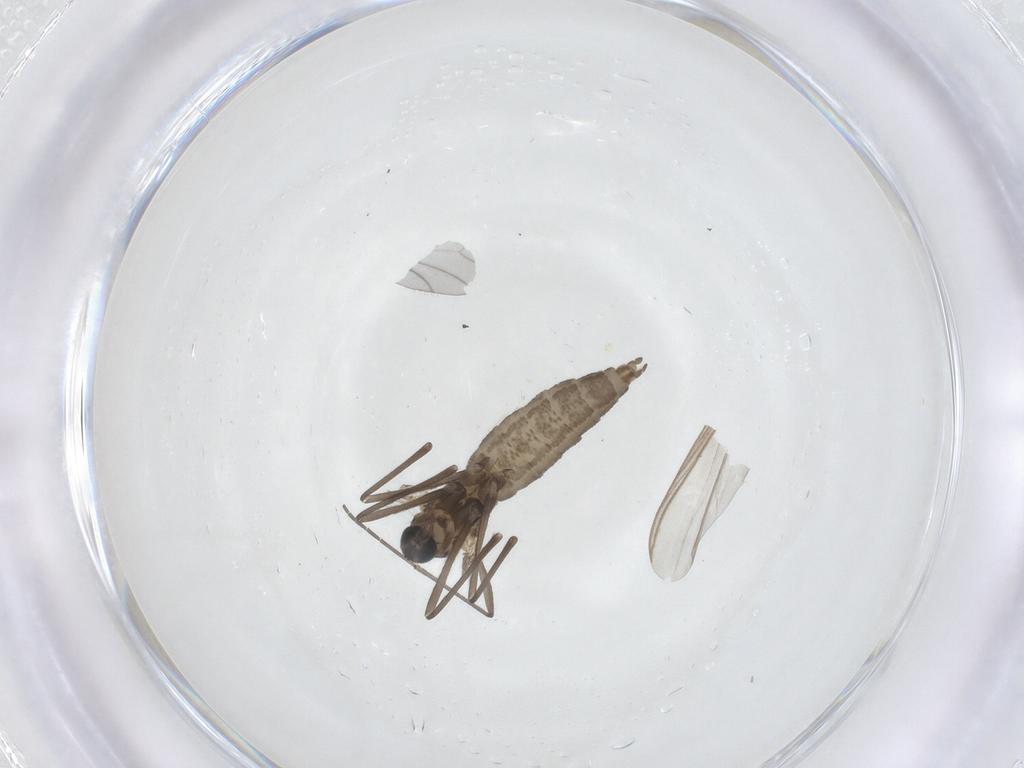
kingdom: Animalia
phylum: Arthropoda
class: Insecta
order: Diptera
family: Cecidomyiidae
